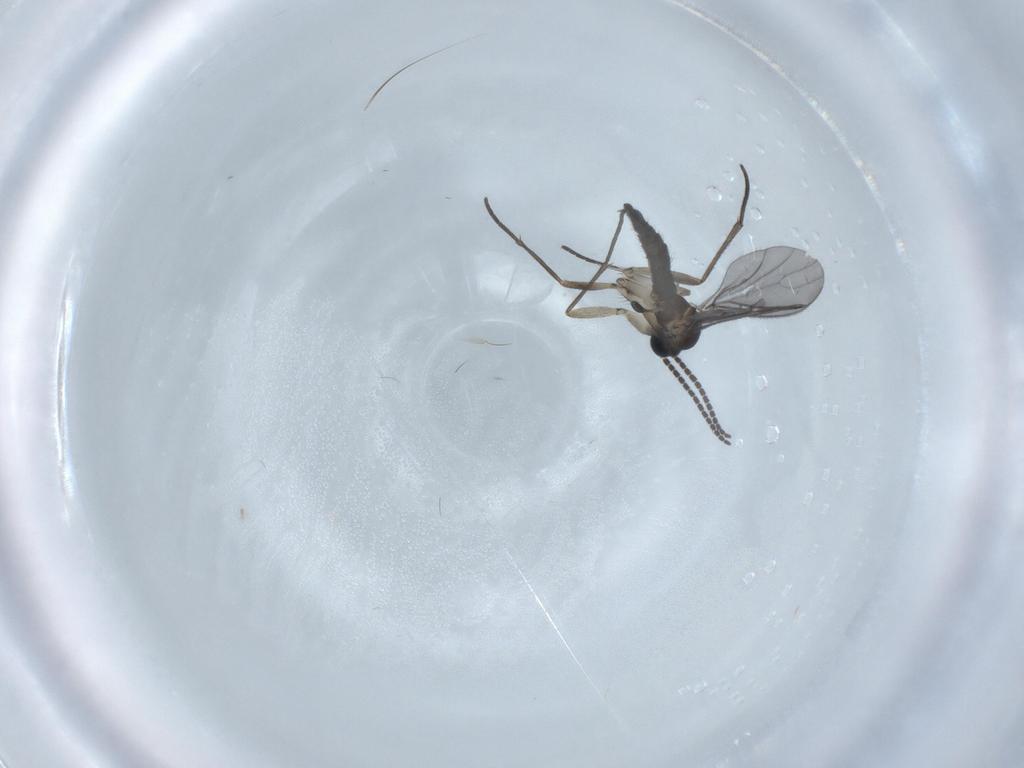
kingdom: Animalia
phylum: Arthropoda
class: Insecta
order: Diptera
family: Sciaridae
